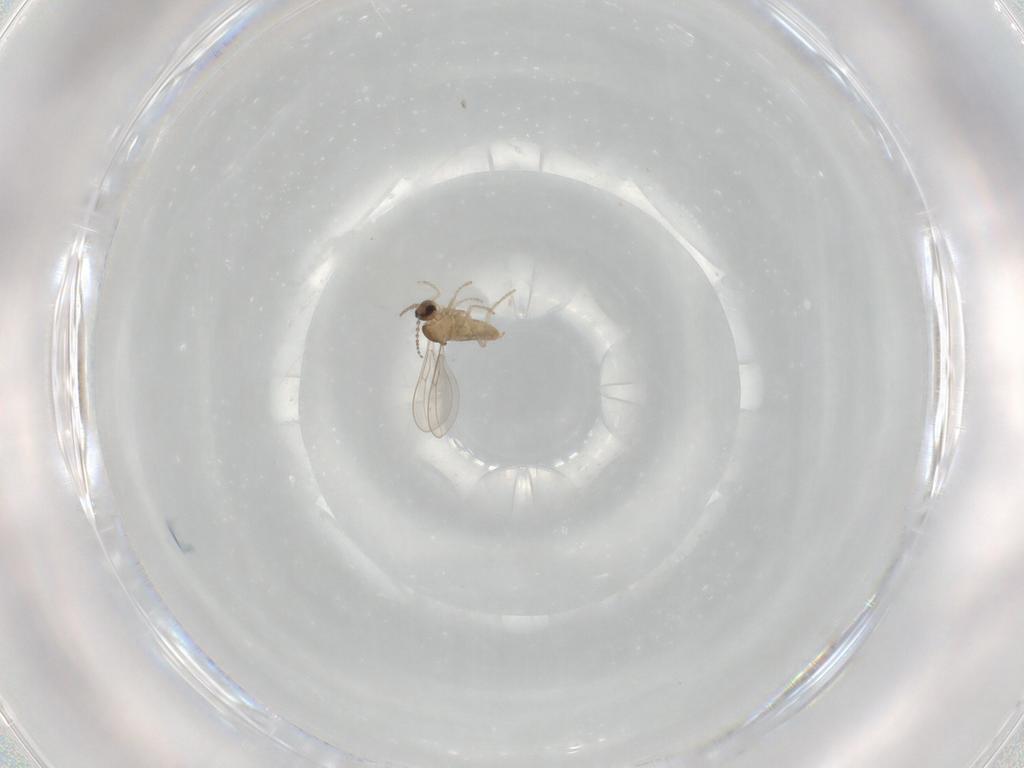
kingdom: Animalia
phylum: Arthropoda
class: Insecta
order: Diptera
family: Cecidomyiidae
